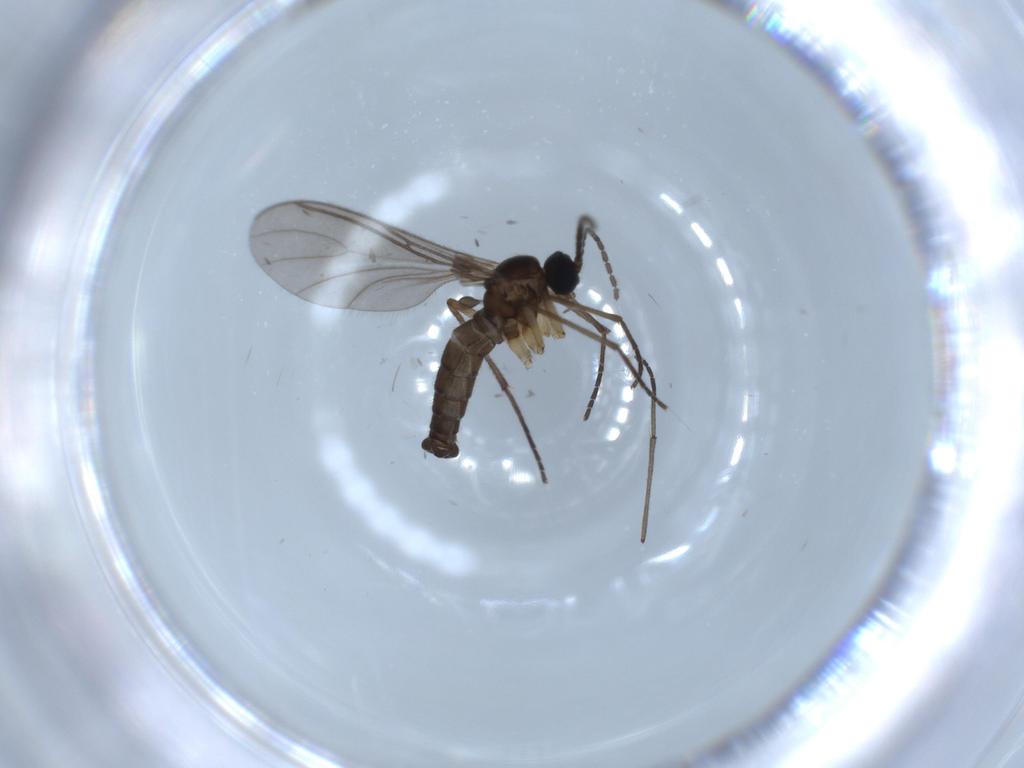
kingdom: Animalia
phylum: Arthropoda
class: Insecta
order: Diptera
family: Sciaridae
